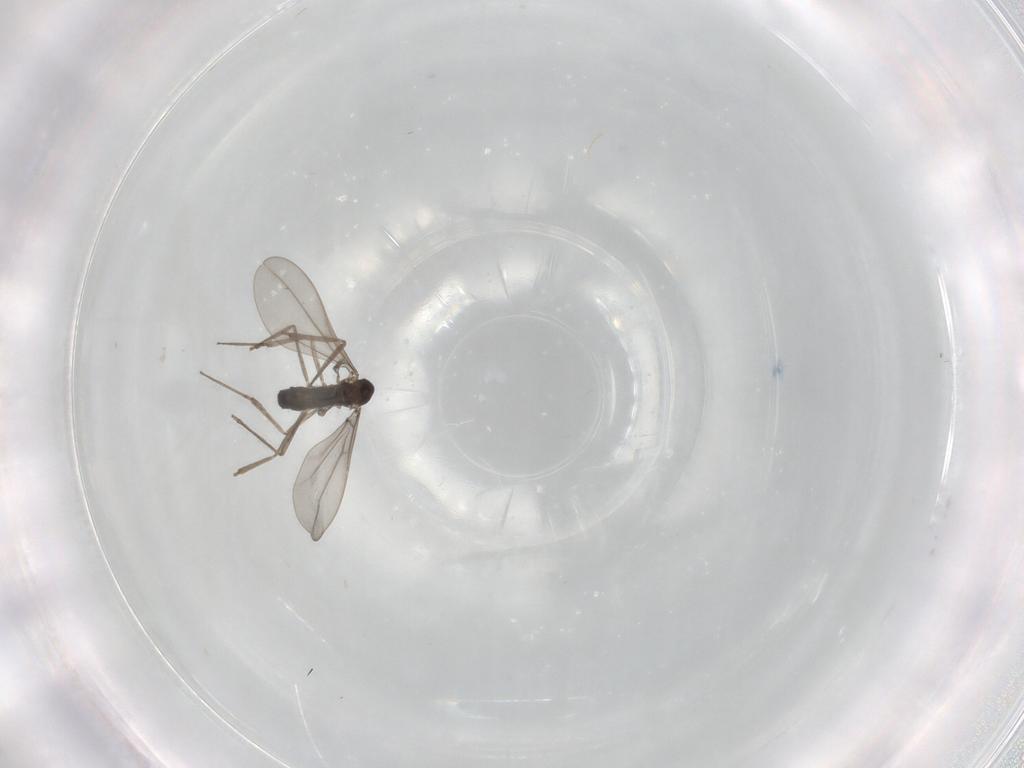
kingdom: Animalia
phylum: Arthropoda
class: Insecta
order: Diptera
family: Phoridae
